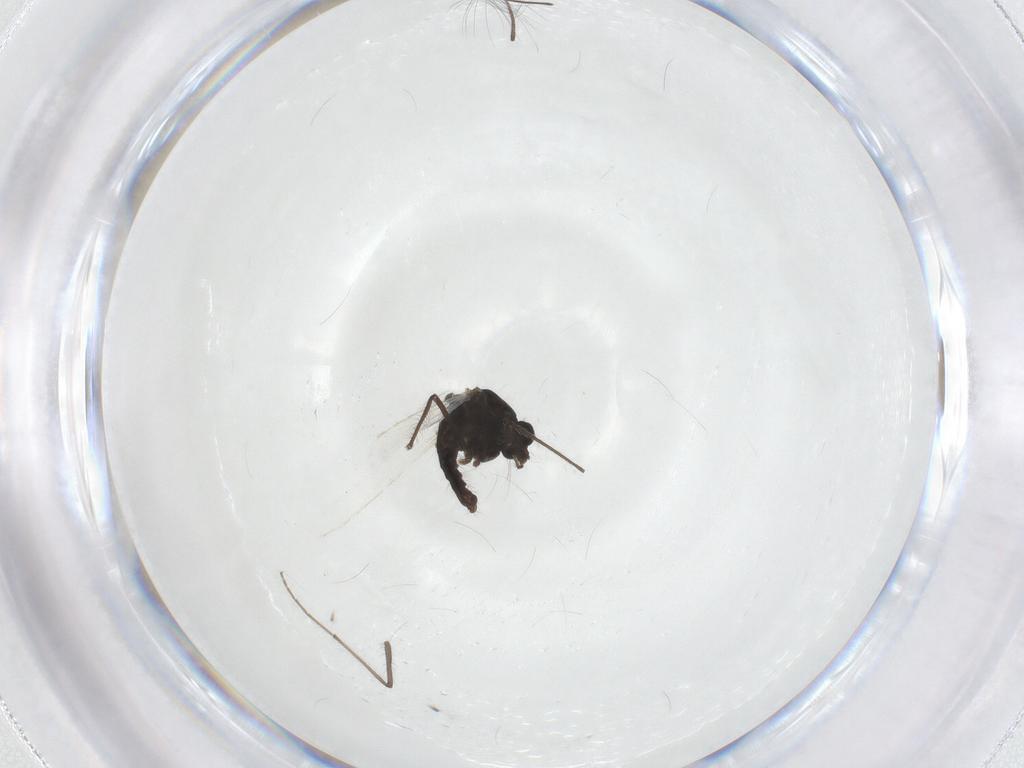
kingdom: Animalia
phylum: Arthropoda
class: Insecta
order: Diptera
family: Chironomidae
